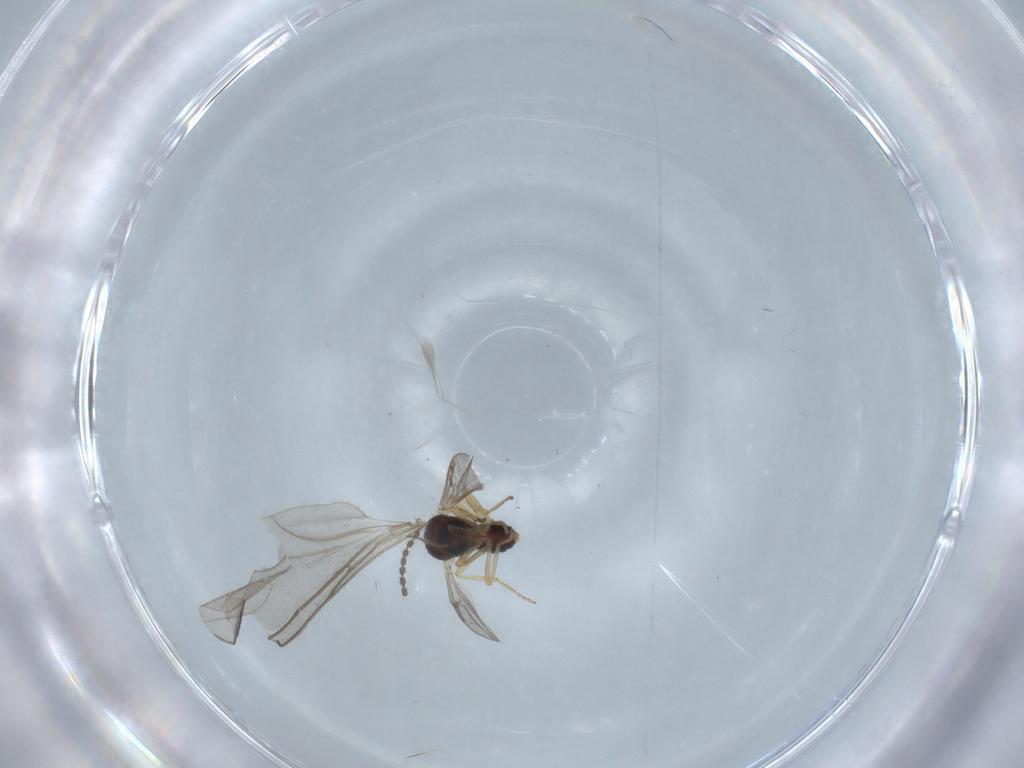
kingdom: Animalia
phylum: Arthropoda
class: Insecta
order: Diptera
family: Ceratopogonidae
